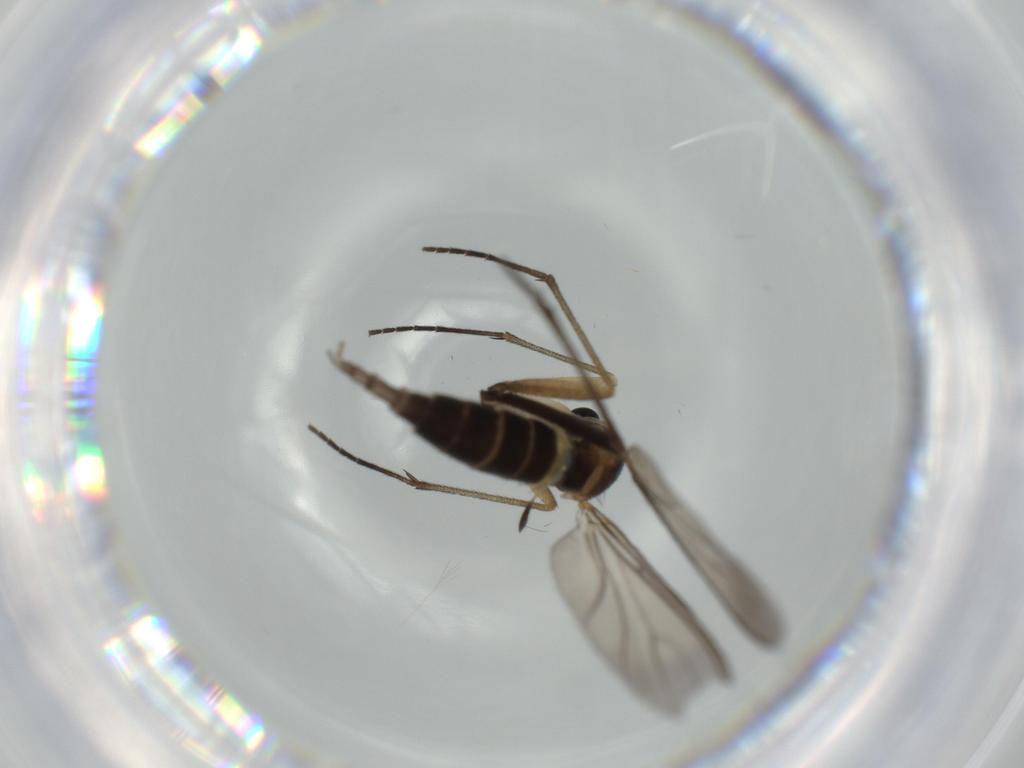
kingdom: Animalia
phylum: Arthropoda
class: Insecta
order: Diptera
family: Sciaridae
